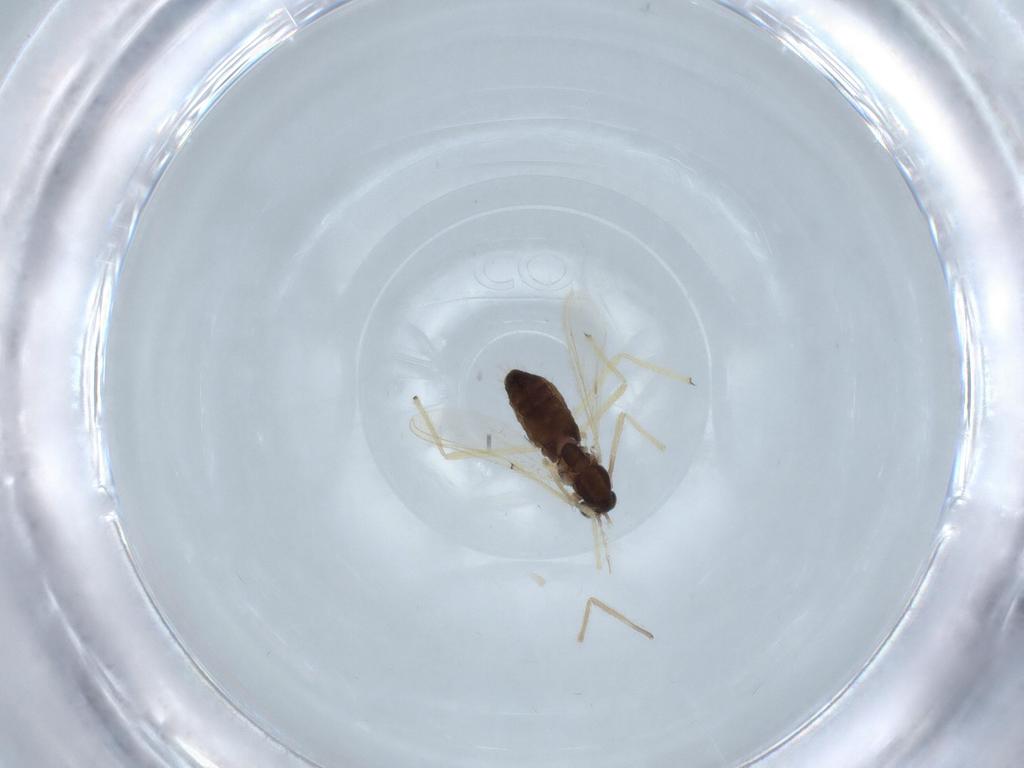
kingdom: Animalia
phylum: Arthropoda
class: Insecta
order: Diptera
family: Chironomidae
